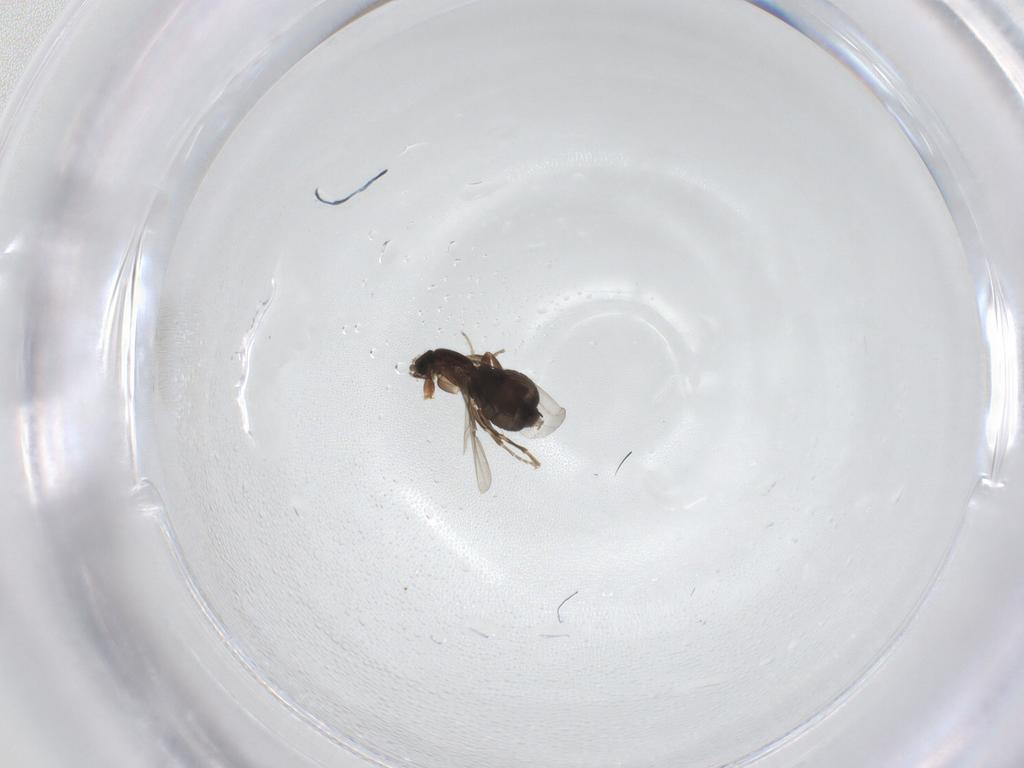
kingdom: Animalia
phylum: Arthropoda
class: Insecta
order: Diptera
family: Phoridae
